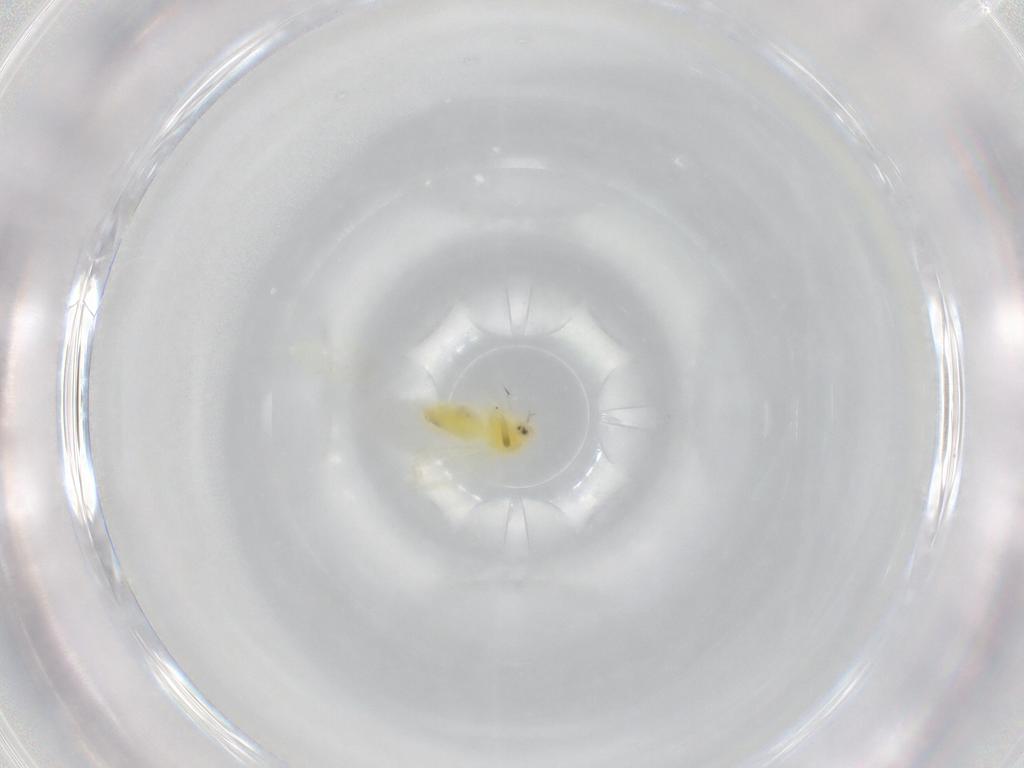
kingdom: Animalia
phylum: Arthropoda
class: Insecta
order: Hemiptera
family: Aleyrodidae
